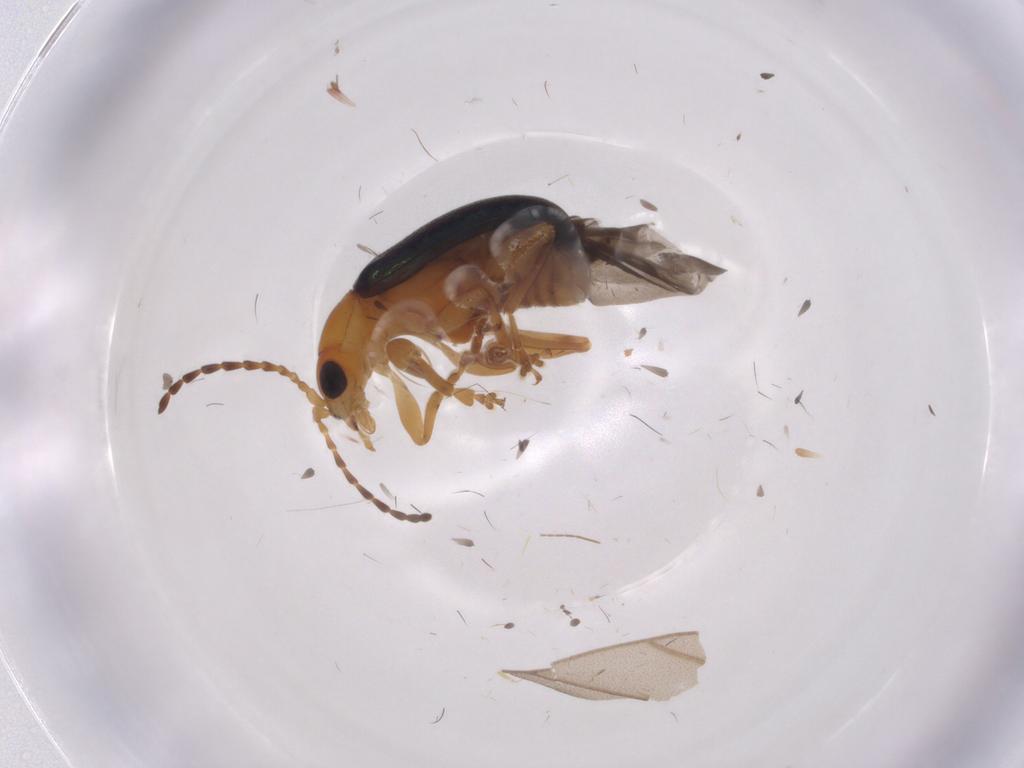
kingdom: Animalia
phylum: Arthropoda
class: Insecta
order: Coleoptera
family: Chrysomelidae
